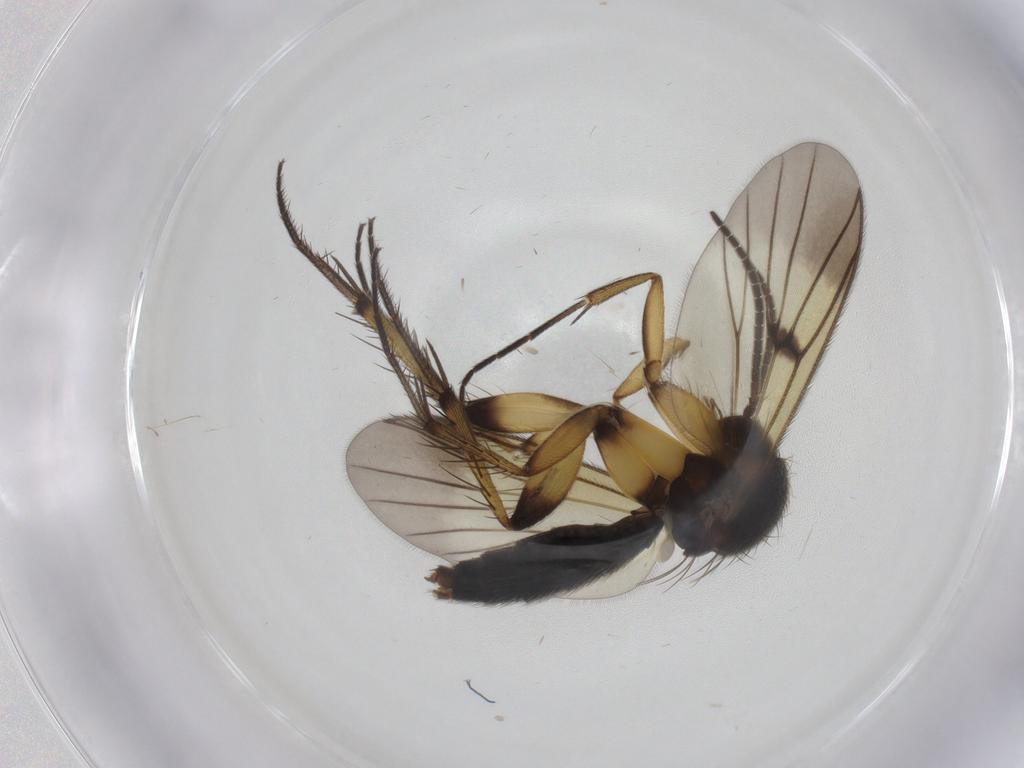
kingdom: Animalia
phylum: Arthropoda
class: Insecta
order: Diptera
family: Mycetophilidae
